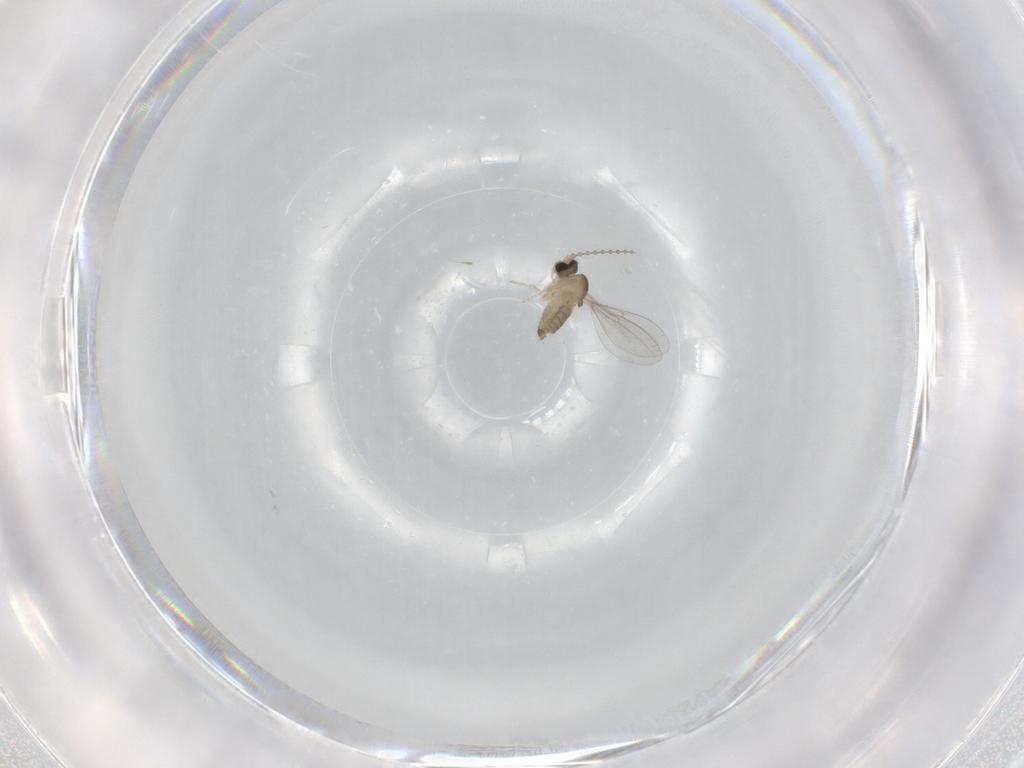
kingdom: Animalia
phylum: Arthropoda
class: Insecta
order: Diptera
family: Cecidomyiidae
